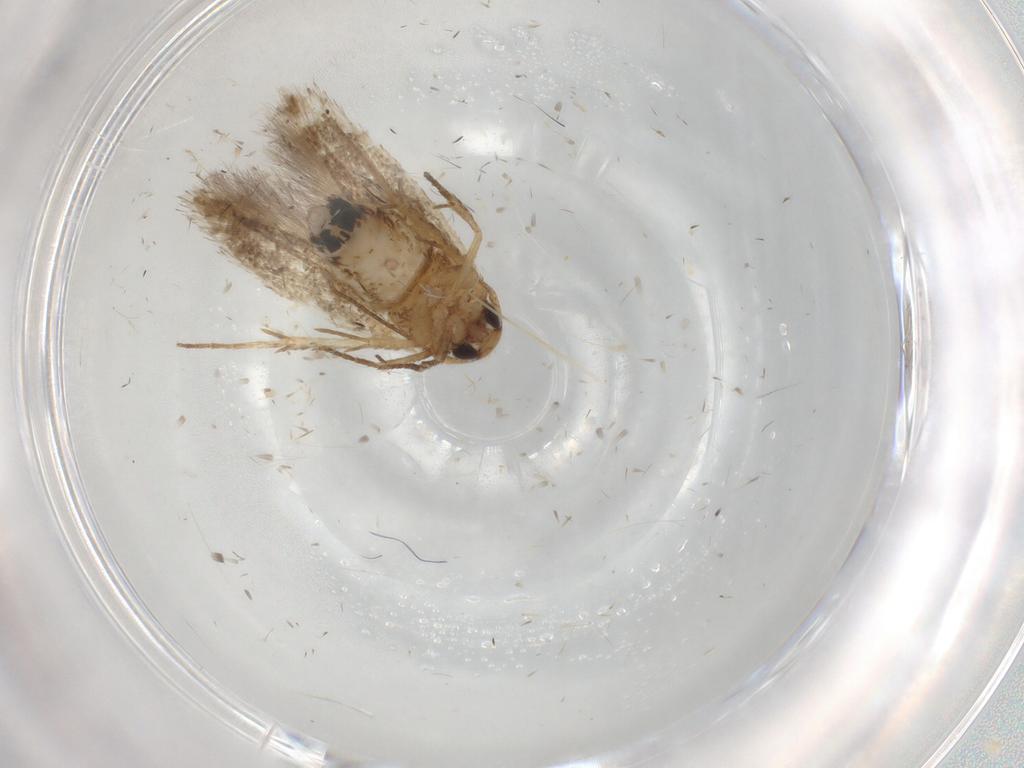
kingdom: Animalia
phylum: Arthropoda
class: Insecta
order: Lepidoptera
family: Cosmopterigidae
